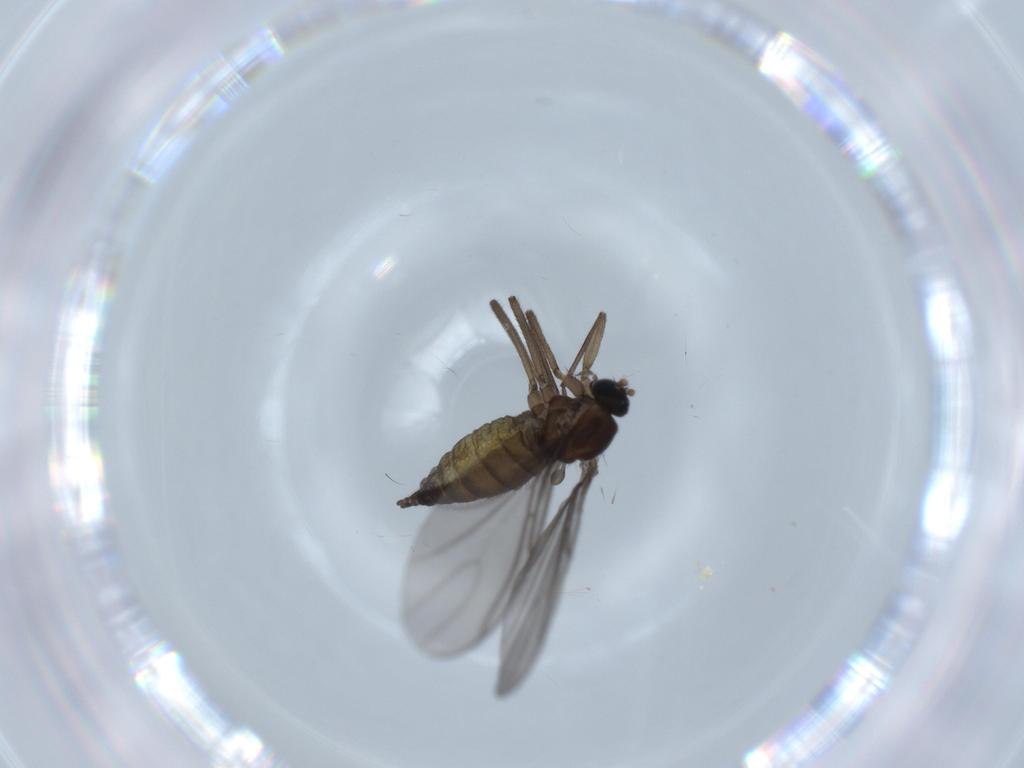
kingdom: Animalia
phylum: Arthropoda
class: Insecta
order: Diptera
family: Sciaridae
